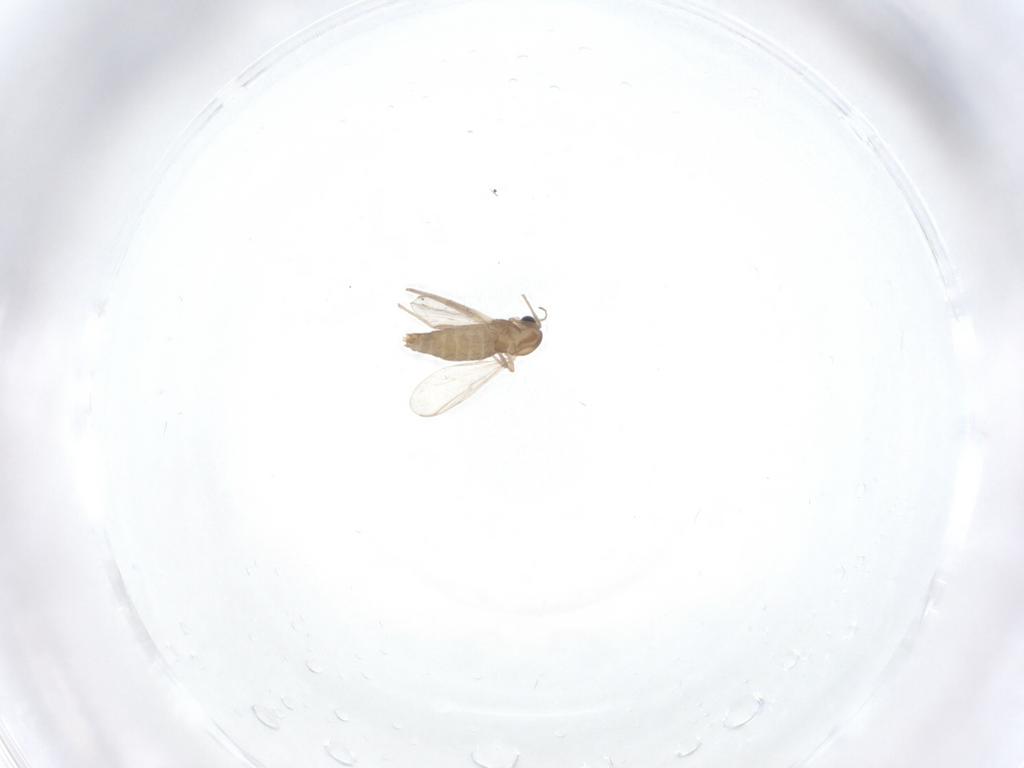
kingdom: Animalia
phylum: Arthropoda
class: Insecta
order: Diptera
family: Chironomidae
